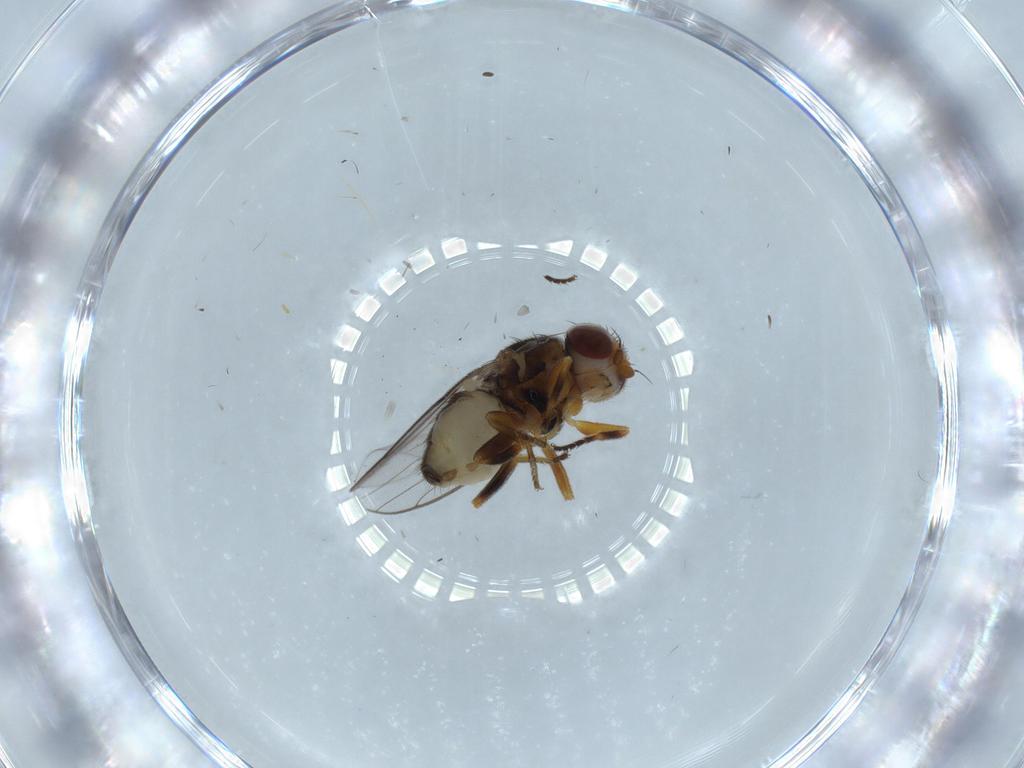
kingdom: Animalia
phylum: Arthropoda
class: Insecta
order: Diptera
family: Chloropidae
